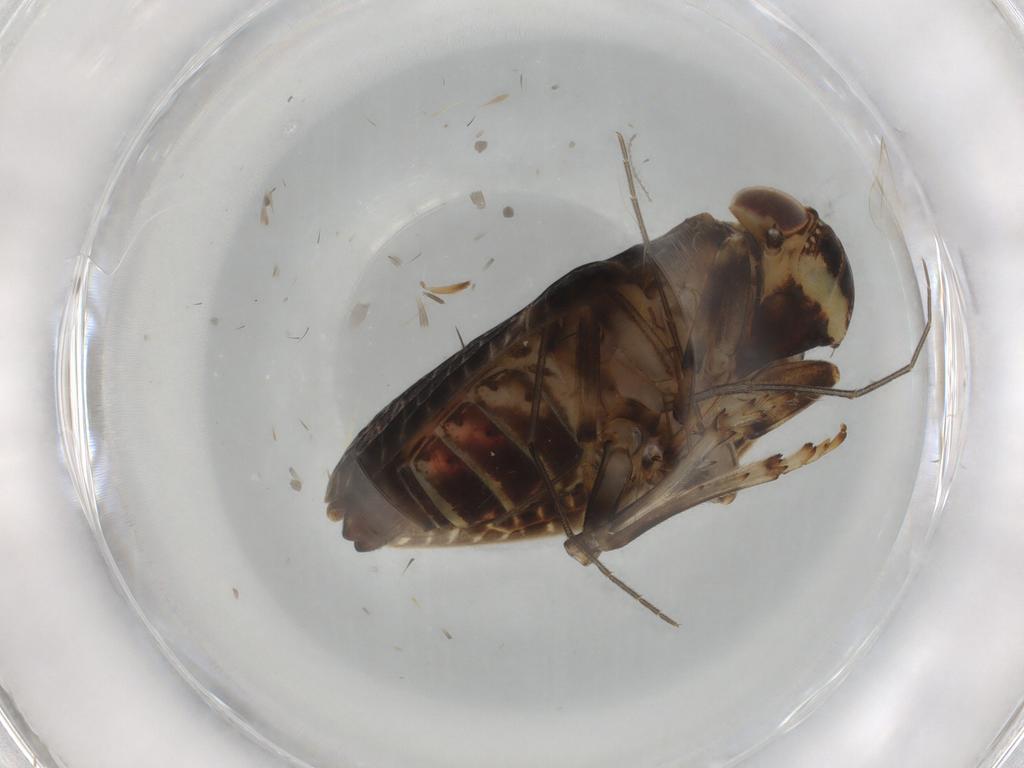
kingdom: Animalia
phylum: Arthropoda
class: Insecta
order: Hemiptera
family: Issidae
